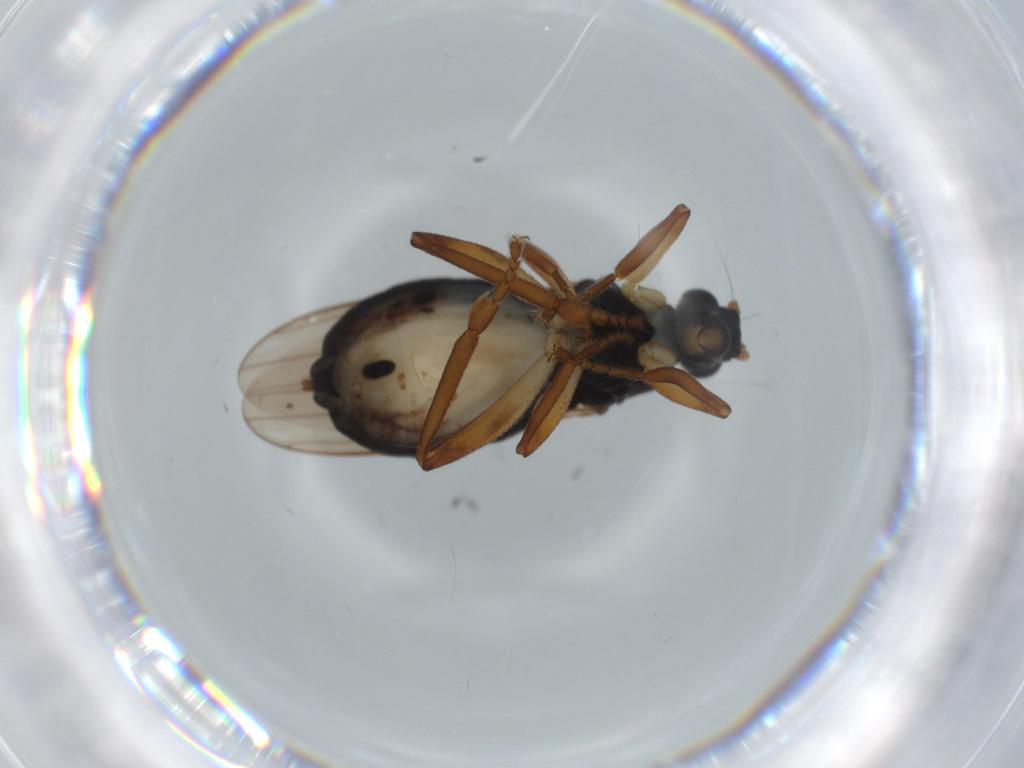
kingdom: Animalia
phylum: Arthropoda
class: Insecta
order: Diptera
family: Sphaeroceridae
